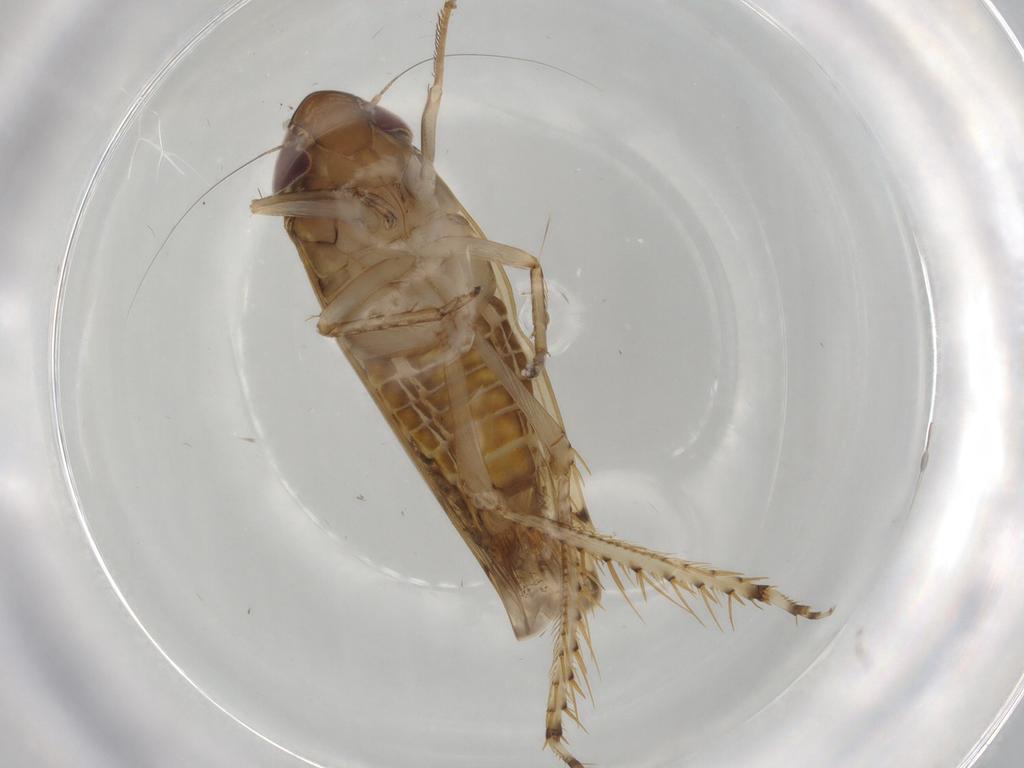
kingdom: Animalia
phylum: Arthropoda
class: Insecta
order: Hemiptera
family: Cicadellidae
